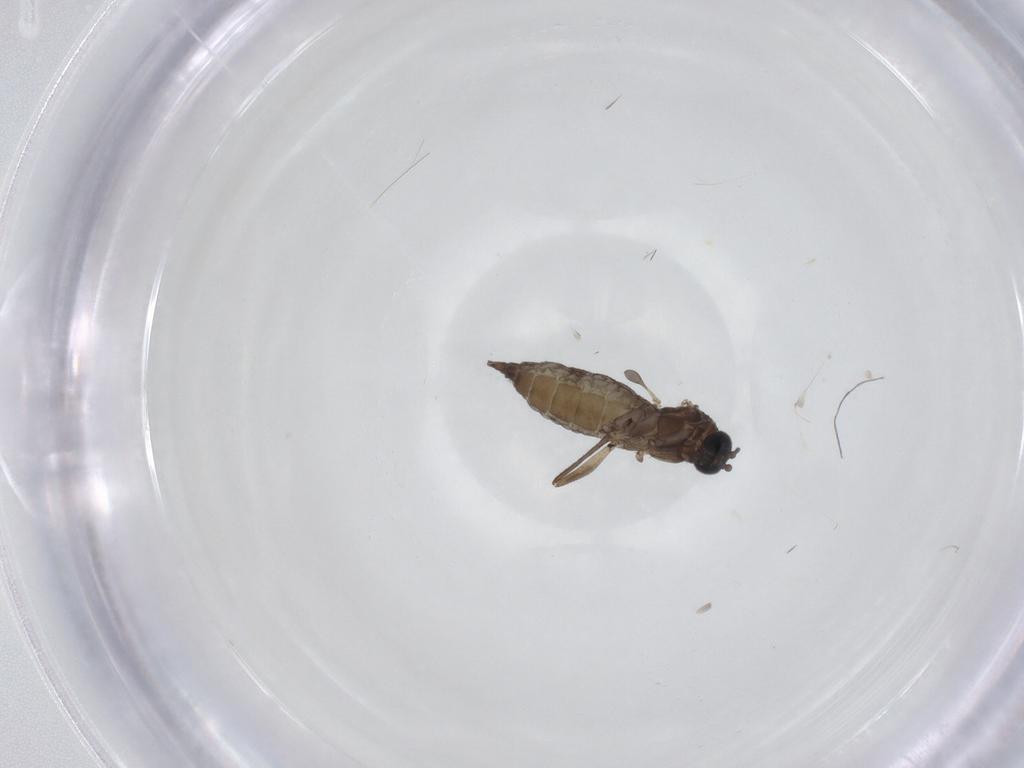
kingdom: Animalia
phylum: Arthropoda
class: Insecta
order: Diptera
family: Sciaridae
